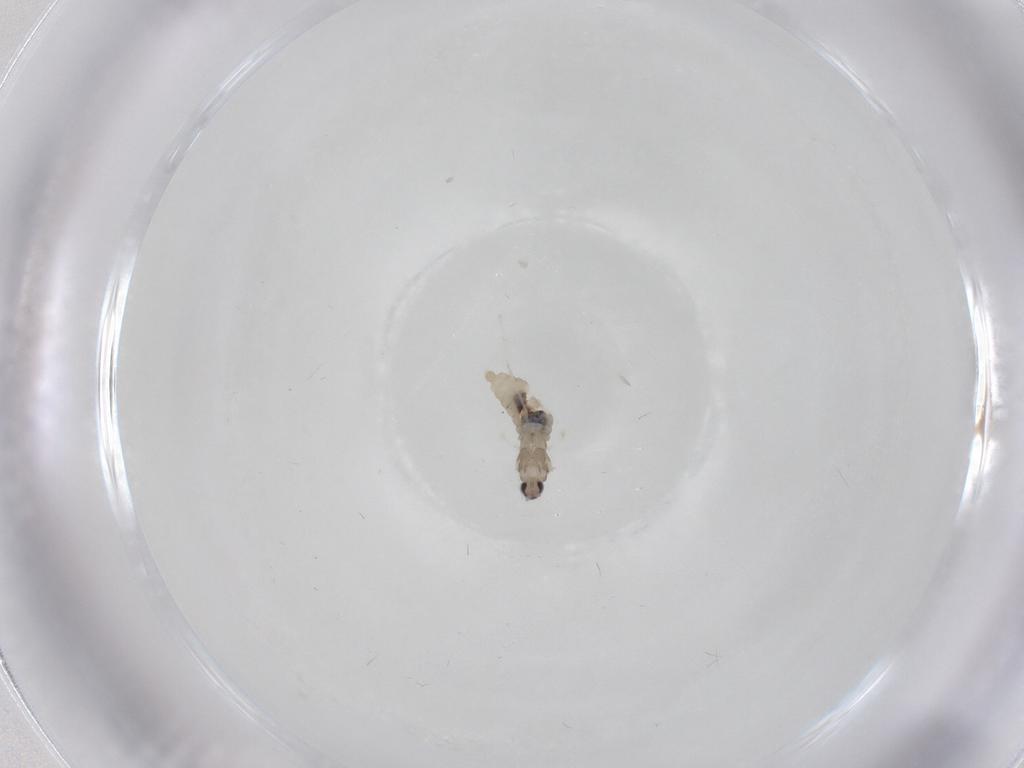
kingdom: Animalia
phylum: Arthropoda
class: Insecta
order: Diptera
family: Cecidomyiidae
